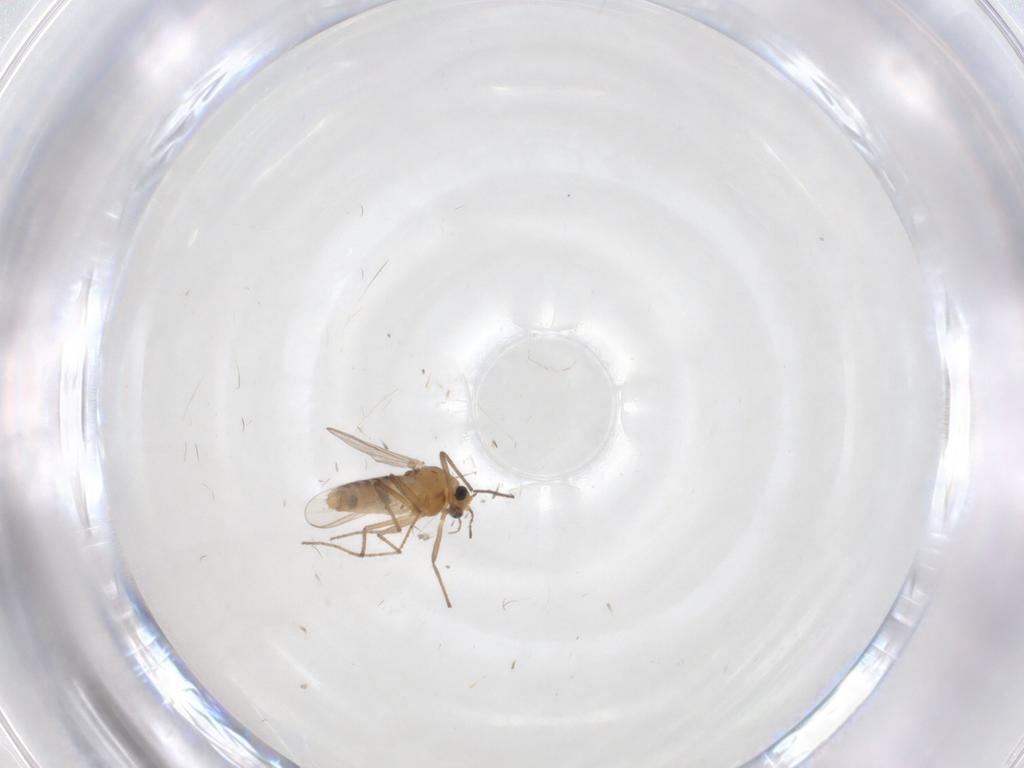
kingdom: Animalia
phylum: Arthropoda
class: Insecta
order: Diptera
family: Chironomidae
